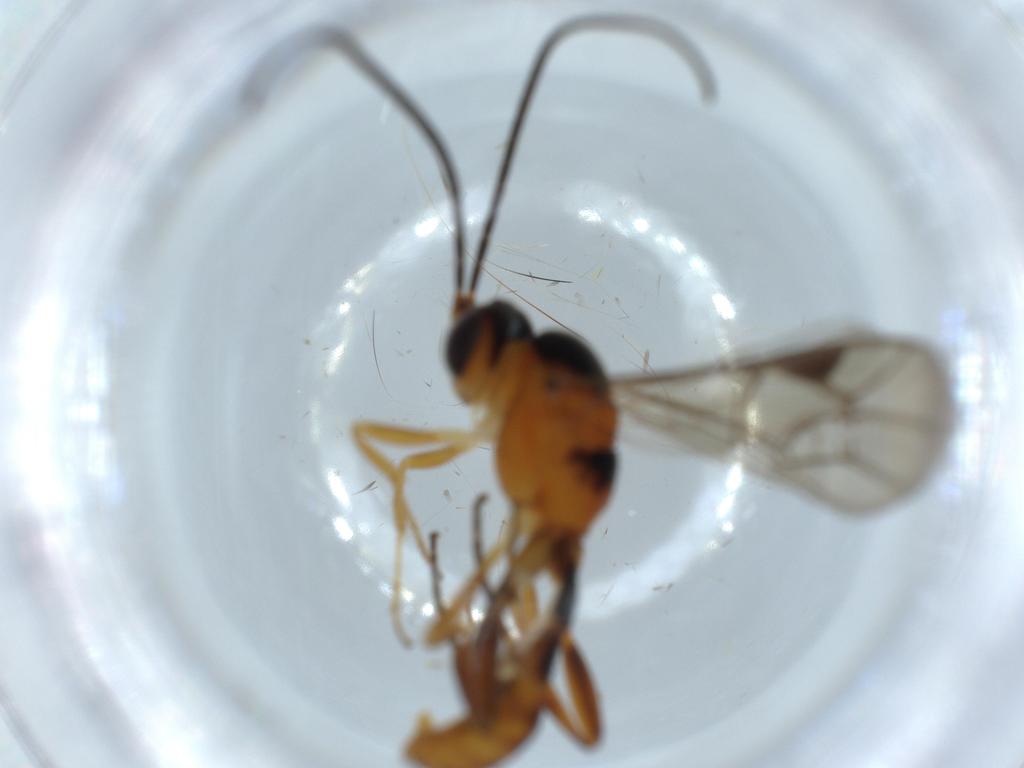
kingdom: Animalia
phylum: Arthropoda
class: Insecta
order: Hymenoptera
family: Ichneumonidae
